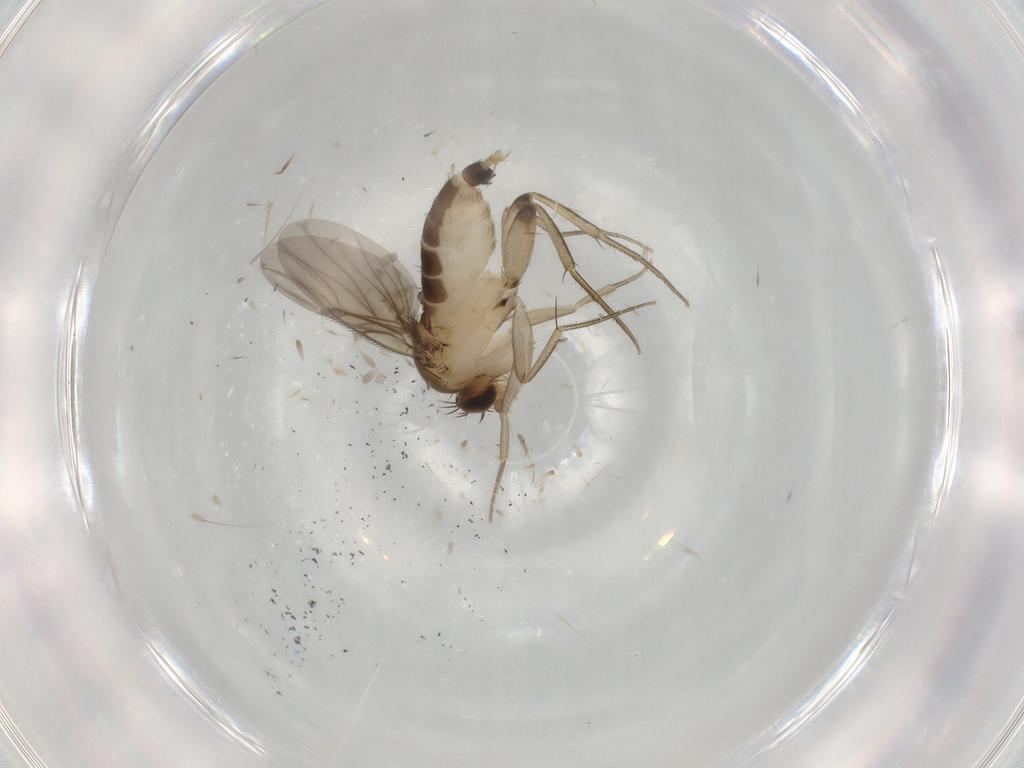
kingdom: Animalia
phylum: Arthropoda
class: Insecta
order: Diptera
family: Phoridae
